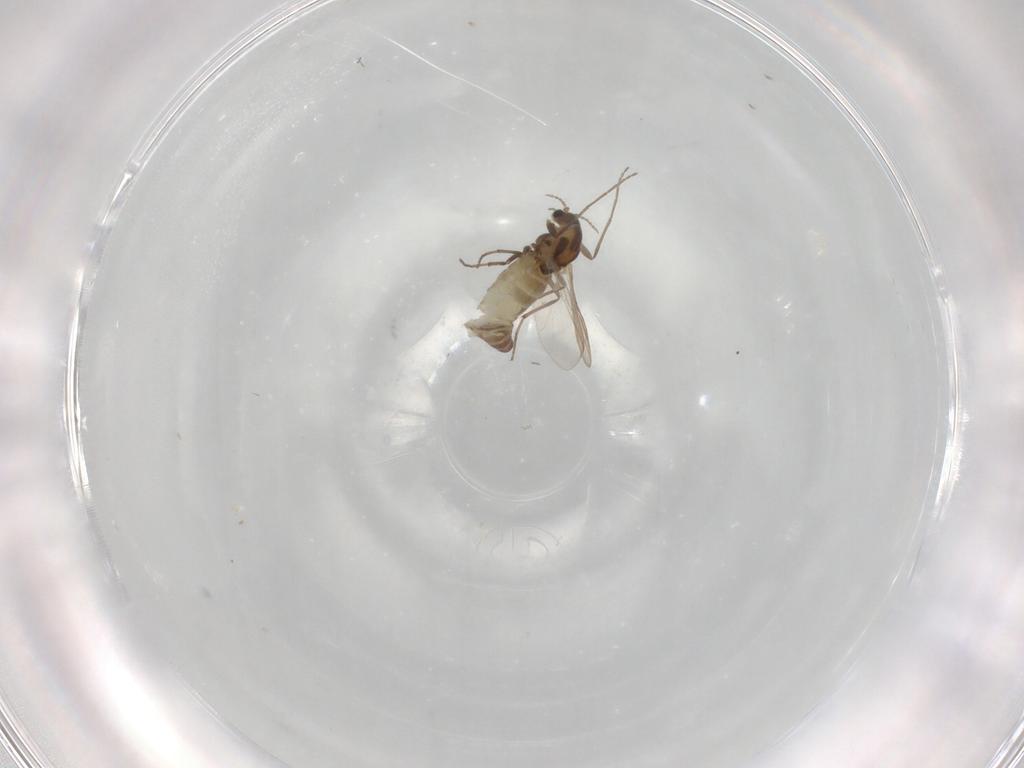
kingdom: Animalia
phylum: Arthropoda
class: Insecta
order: Diptera
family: Chironomidae
